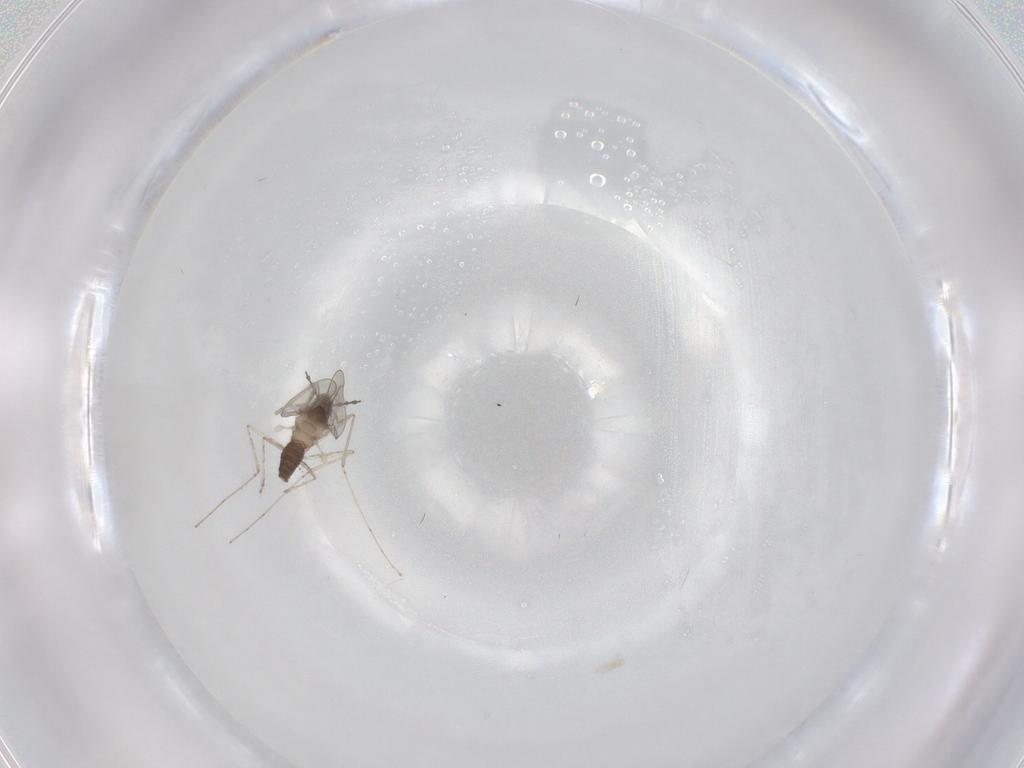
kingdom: Animalia
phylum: Arthropoda
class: Insecta
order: Diptera
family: Cecidomyiidae
